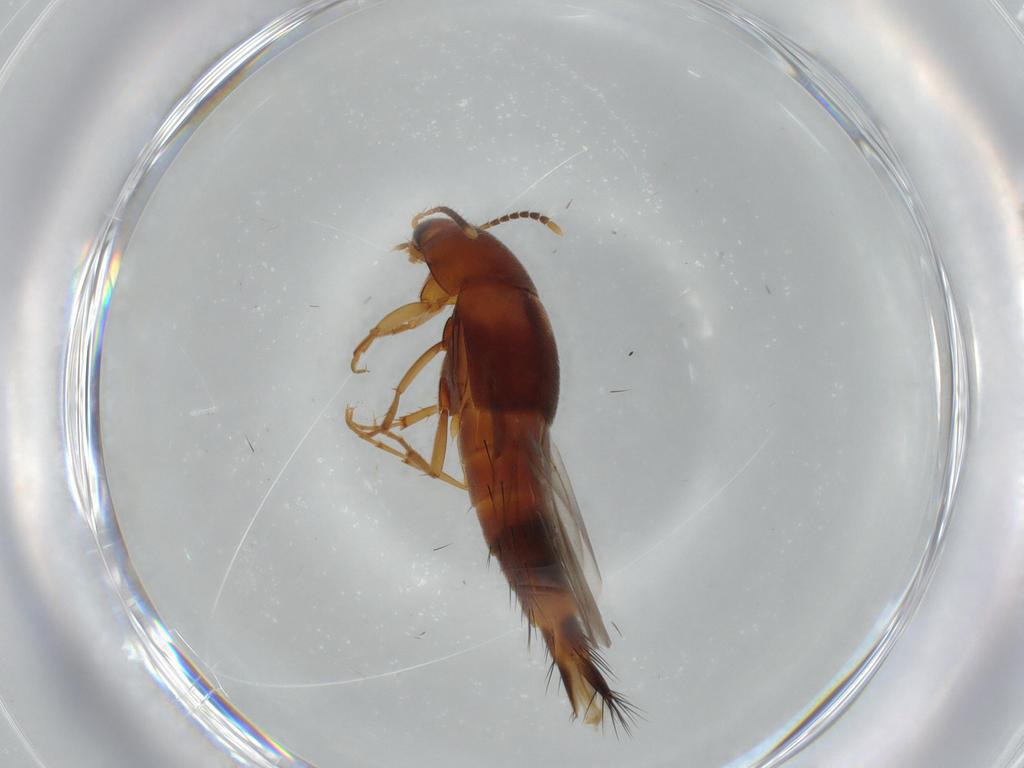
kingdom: Animalia
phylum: Arthropoda
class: Insecta
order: Coleoptera
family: Staphylinidae
